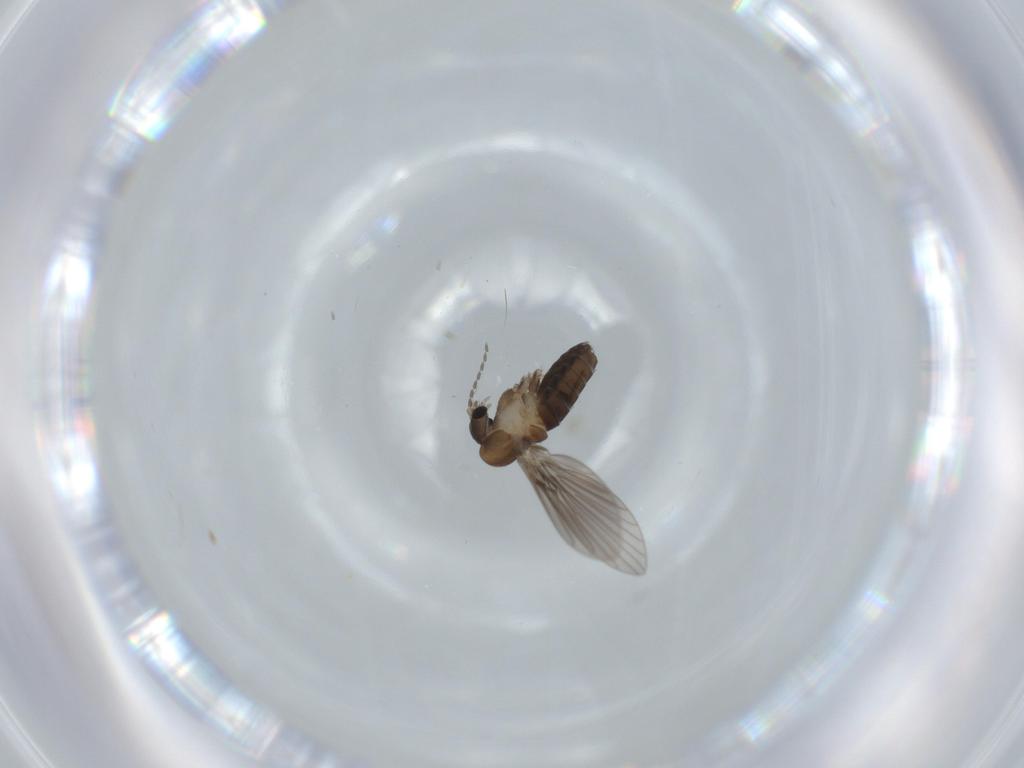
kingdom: Animalia
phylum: Arthropoda
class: Insecta
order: Diptera
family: Psychodidae
